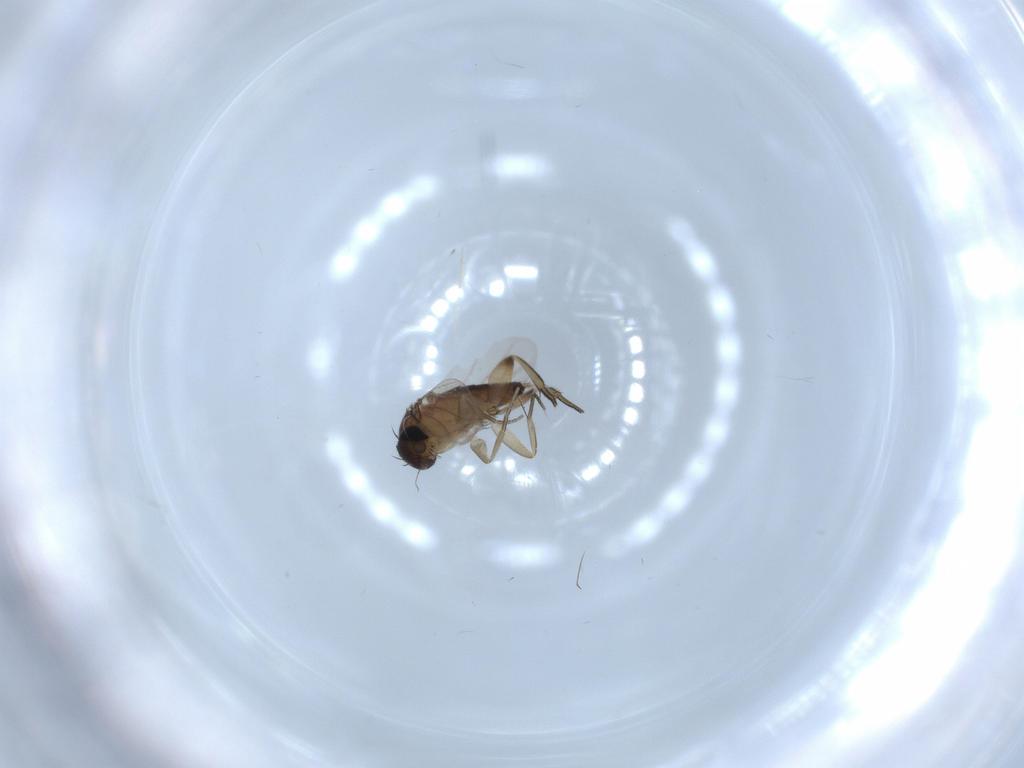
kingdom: Animalia
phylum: Arthropoda
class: Insecta
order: Diptera
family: Phoridae
